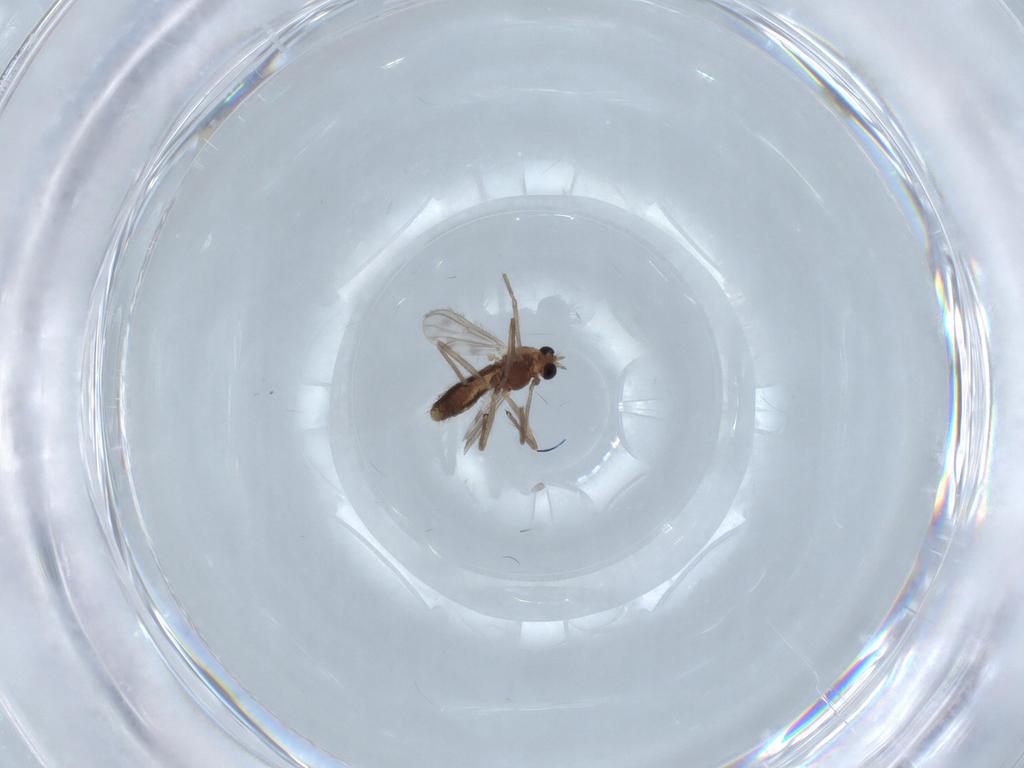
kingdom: Animalia
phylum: Arthropoda
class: Insecta
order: Diptera
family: Chironomidae
